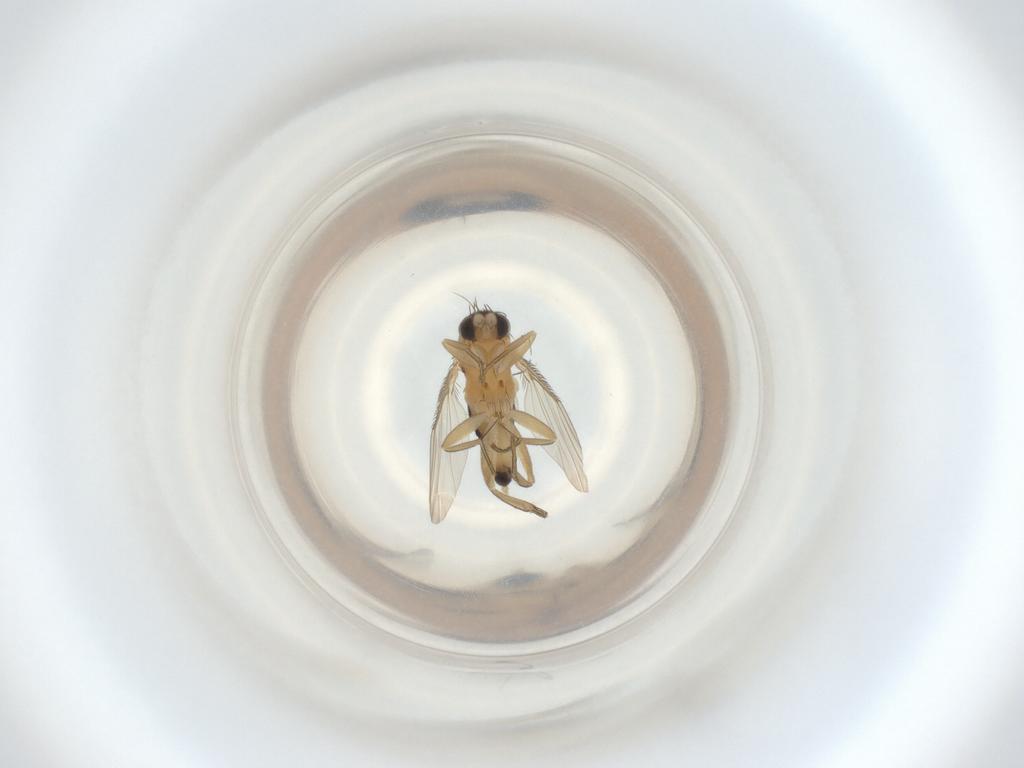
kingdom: Animalia
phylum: Arthropoda
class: Insecta
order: Diptera
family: Phoridae
